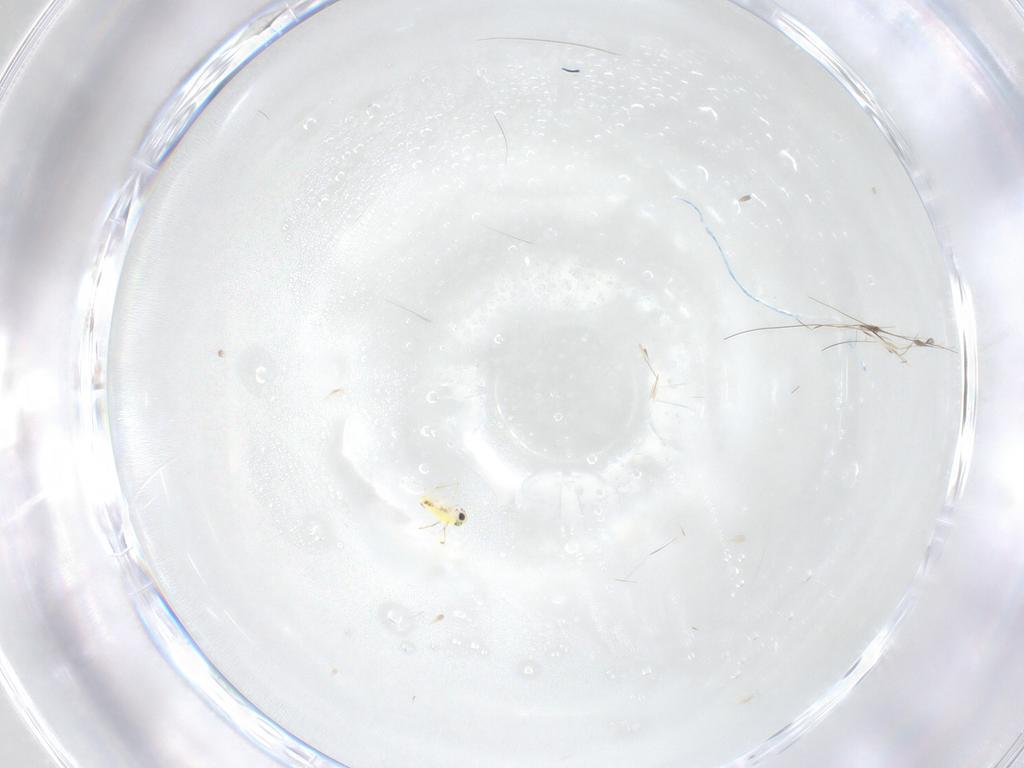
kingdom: Animalia
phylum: Arthropoda
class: Insecta
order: Hemiptera
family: Coreidae
